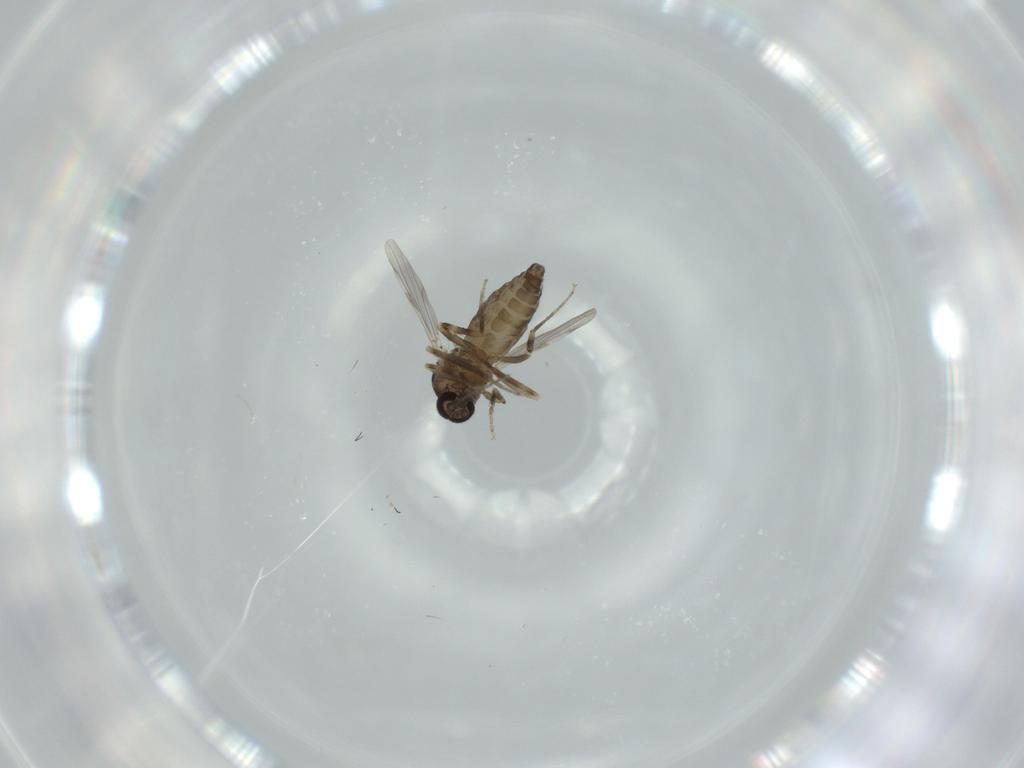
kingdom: Animalia
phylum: Arthropoda
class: Insecta
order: Diptera
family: Ceratopogonidae
